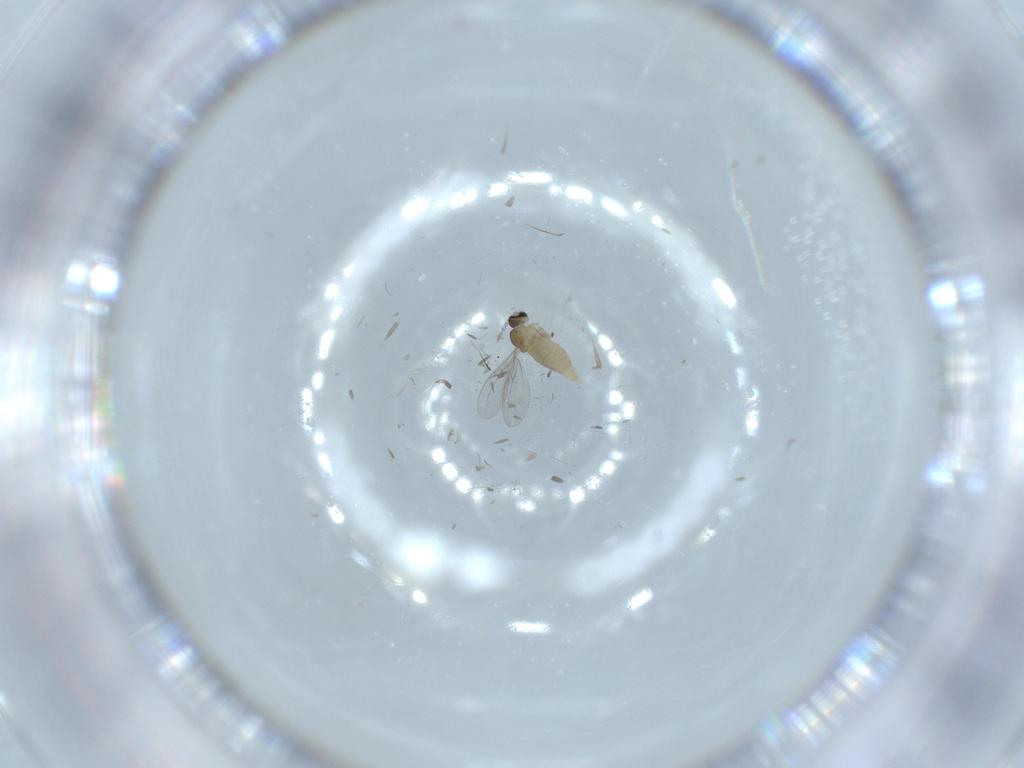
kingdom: Animalia
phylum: Arthropoda
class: Insecta
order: Diptera
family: Cecidomyiidae
